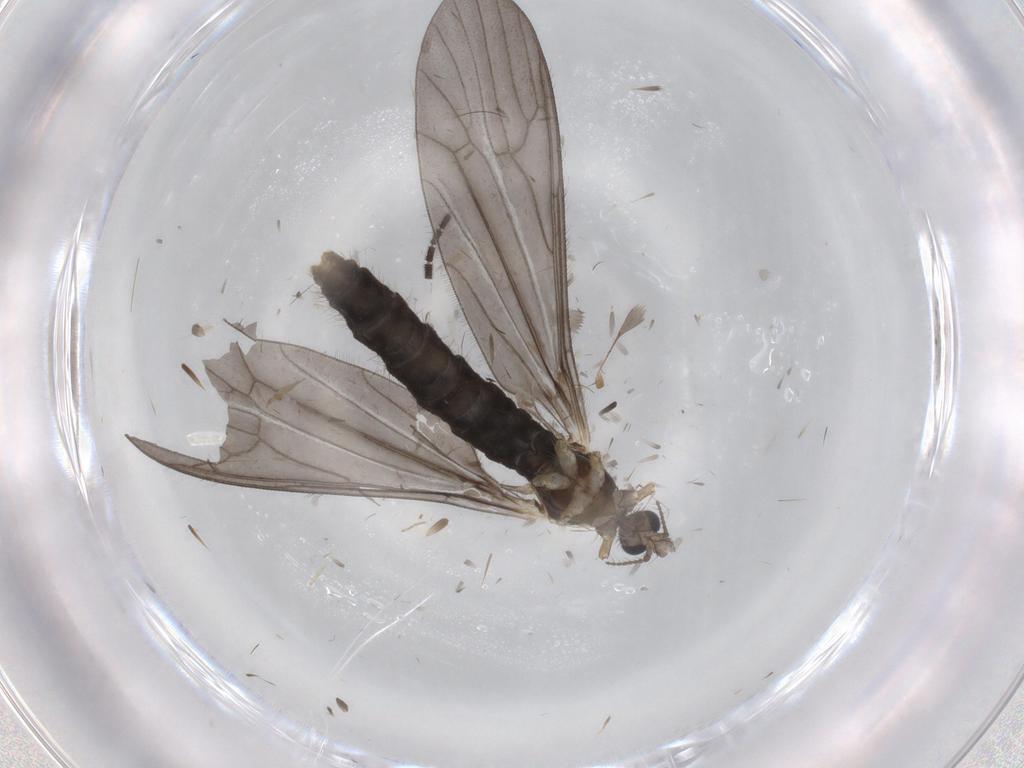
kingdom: Animalia
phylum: Arthropoda
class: Insecta
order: Diptera
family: Limoniidae
